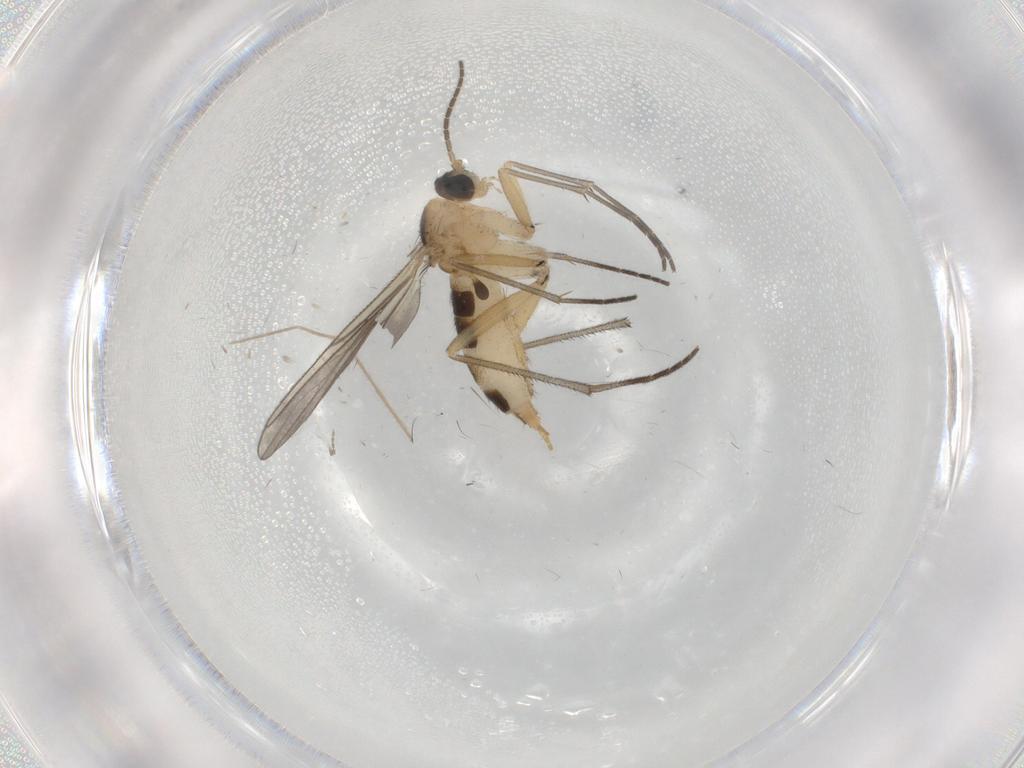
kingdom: Animalia
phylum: Arthropoda
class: Insecta
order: Diptera
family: Sciaridae
